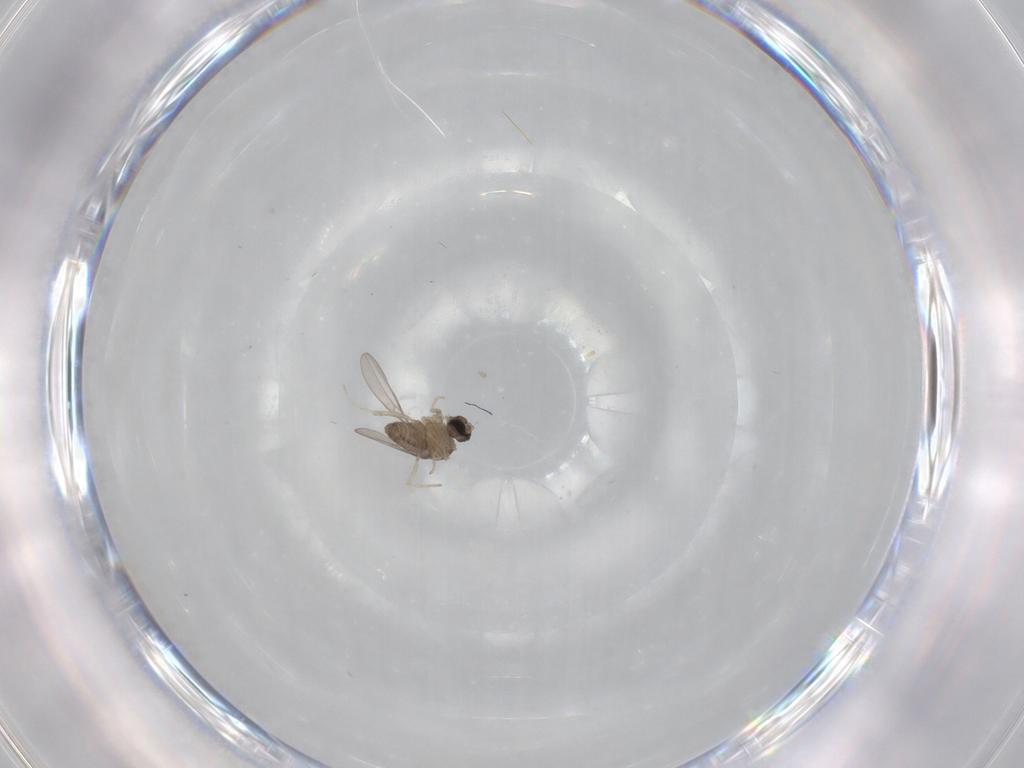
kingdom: Animalia
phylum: Arthropoda
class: Insecta
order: Diptera
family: Cecidomyiidae
